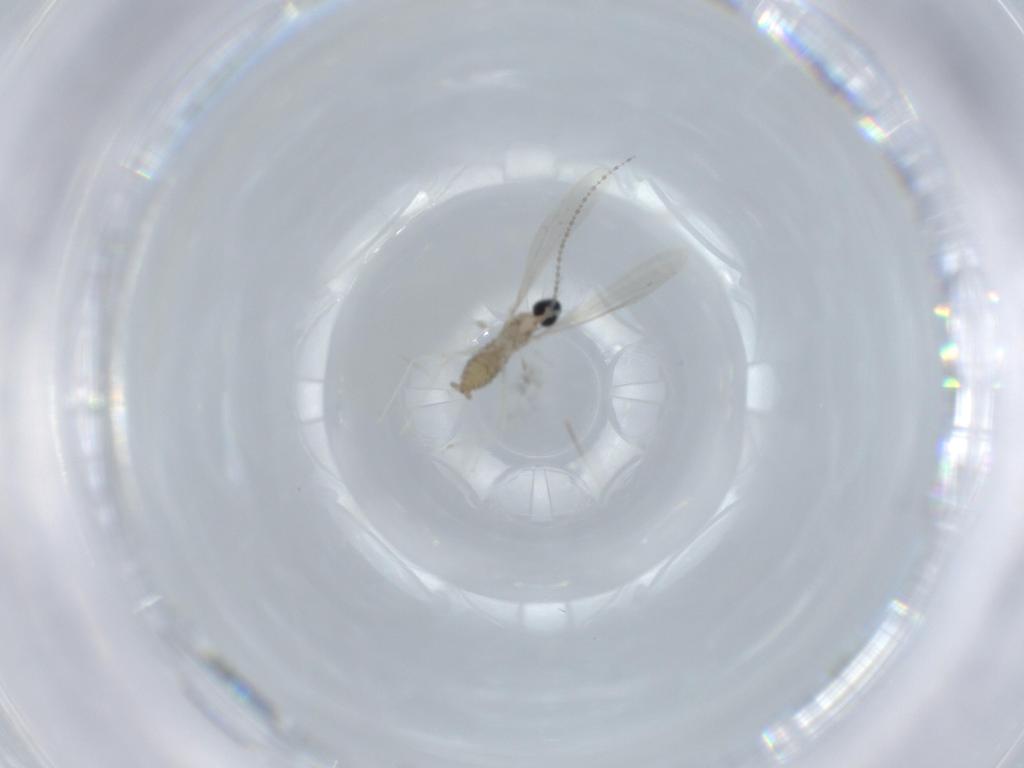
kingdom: Animalia
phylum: Arthropoda
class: Insecta
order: Diptera
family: Cecidomyiidae
